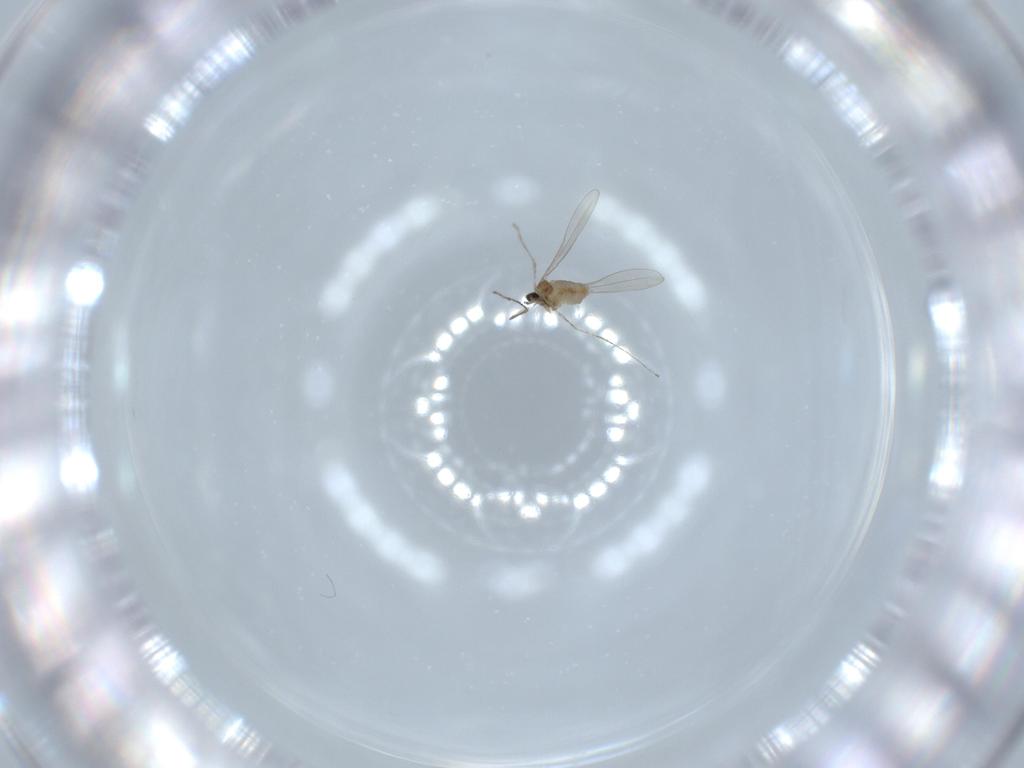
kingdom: Animalia
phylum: Arthropoda
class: Insecta
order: Diptera
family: Cecidomyiidae
